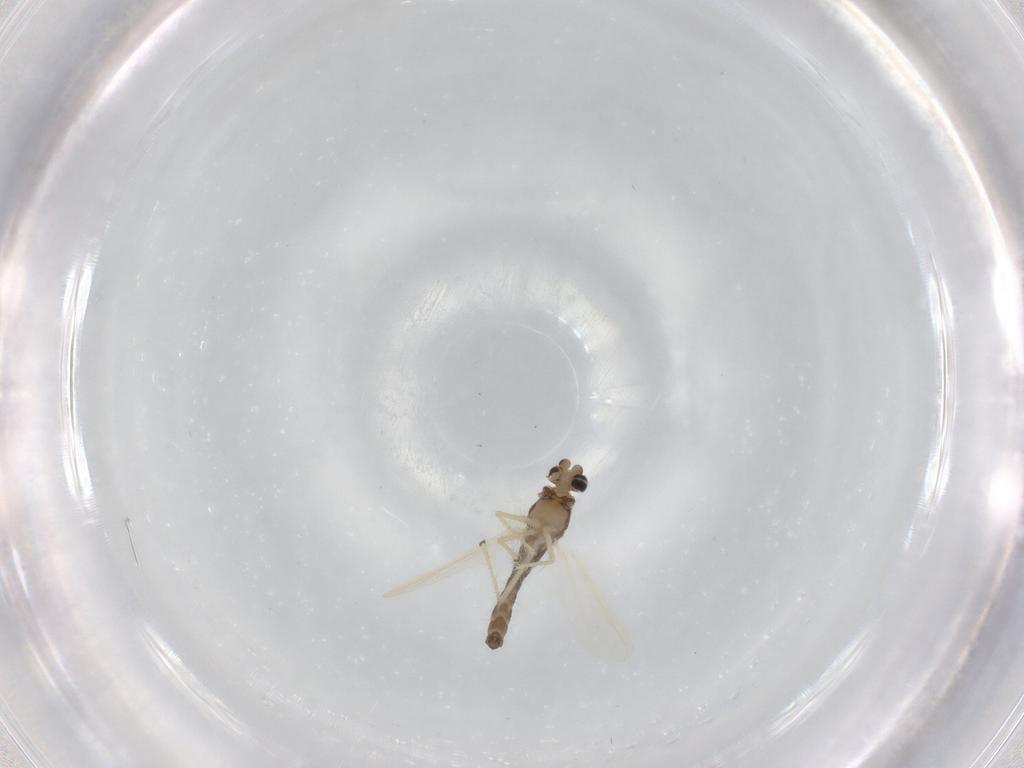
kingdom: Animalia
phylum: Arthropoda
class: Insecta
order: Diptera
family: Chironomidae
